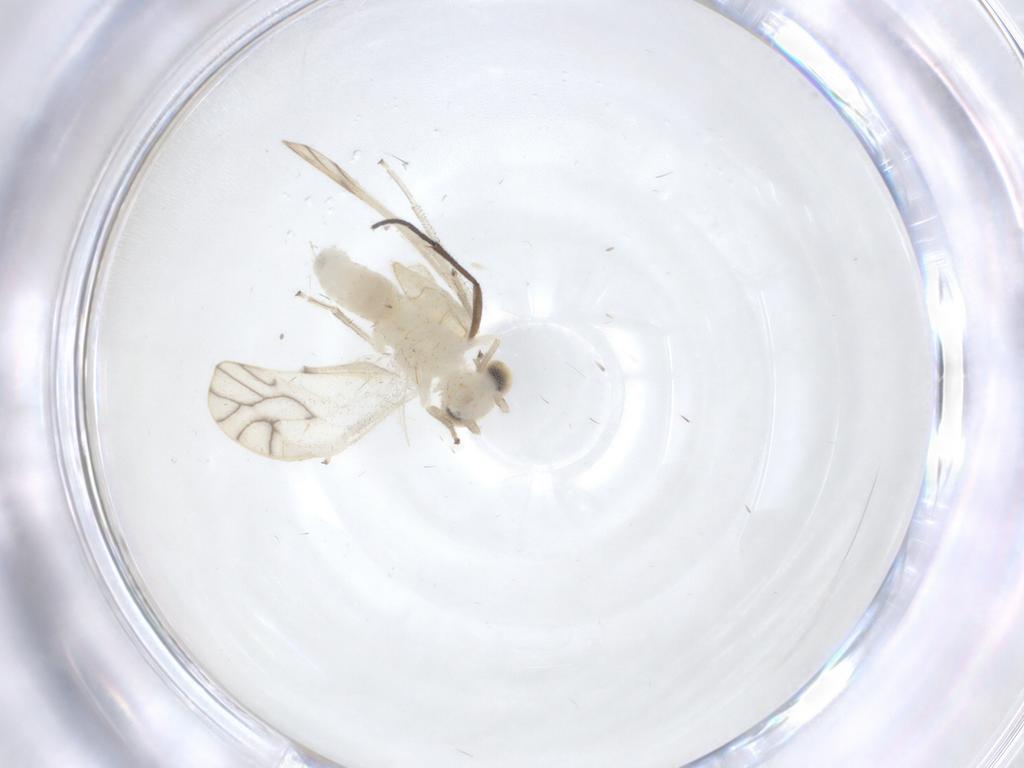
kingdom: Animalia
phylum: Arthropoda
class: Insecta
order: Psocodea
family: Caeciliusidae
